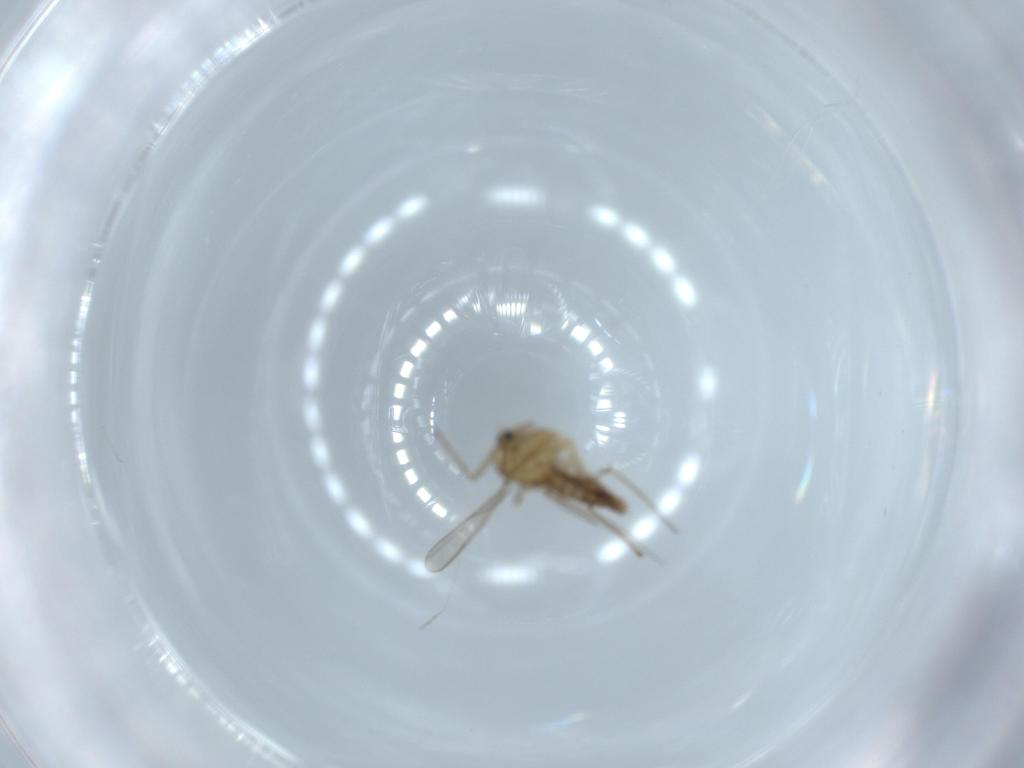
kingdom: Animalia
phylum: Arthropoda
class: Insecta
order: Diptera
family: Chironomidae
